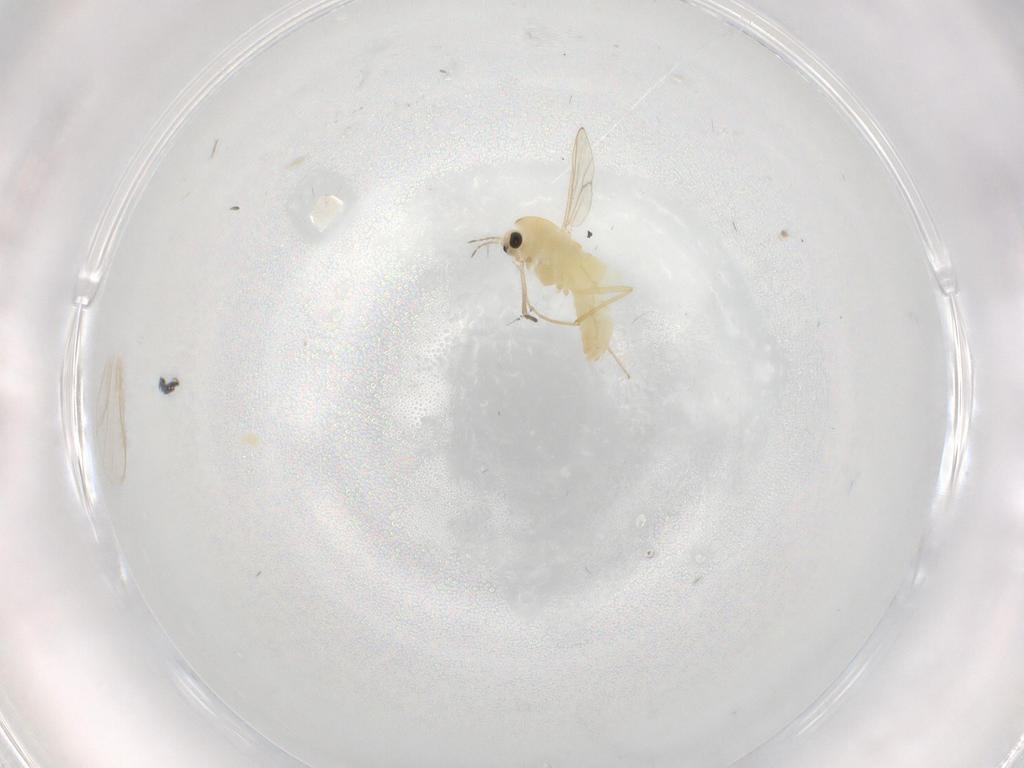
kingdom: Animalia
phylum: Arthropoda
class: Insecta
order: Diptera
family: Chironomidae
